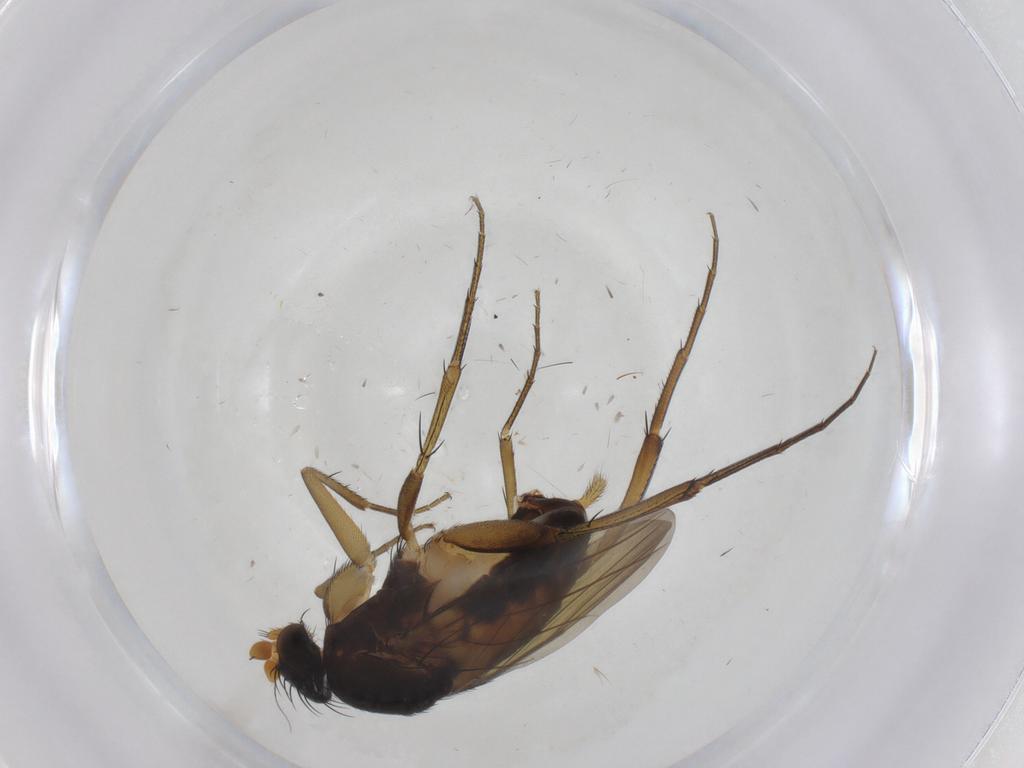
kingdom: Animalia
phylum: Arthropoda
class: Insecta
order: Diptera
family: Phoridae
